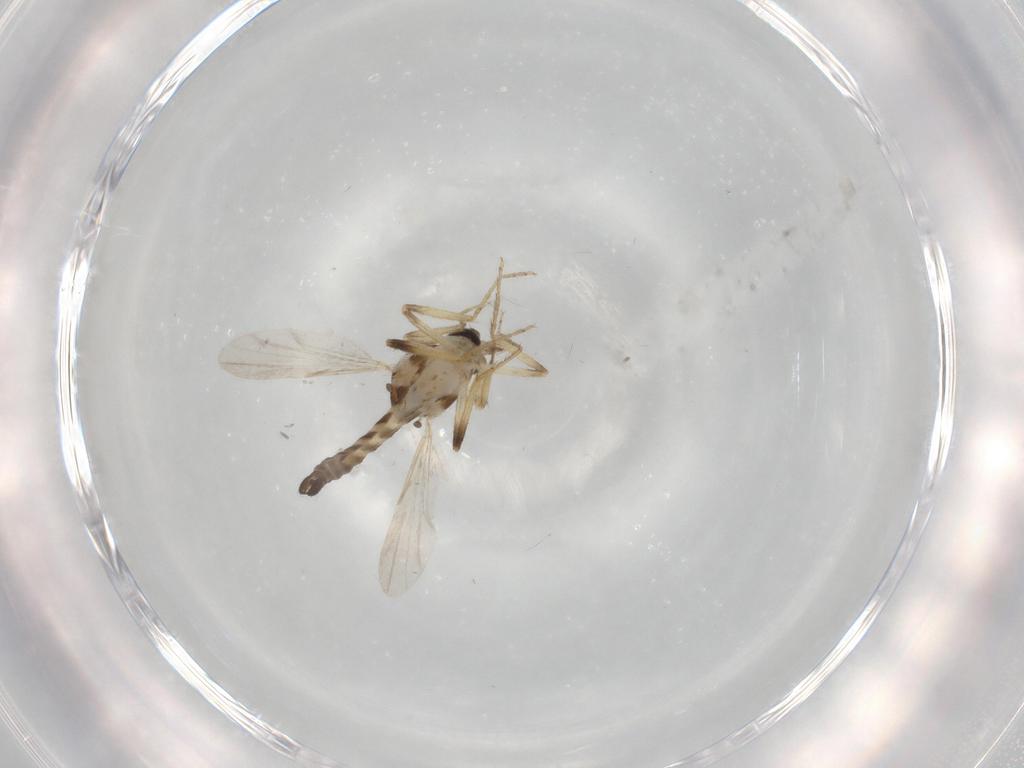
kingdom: Animalia
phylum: Arthropoda
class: Insecta
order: Diptera
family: Ceratopogonidae
